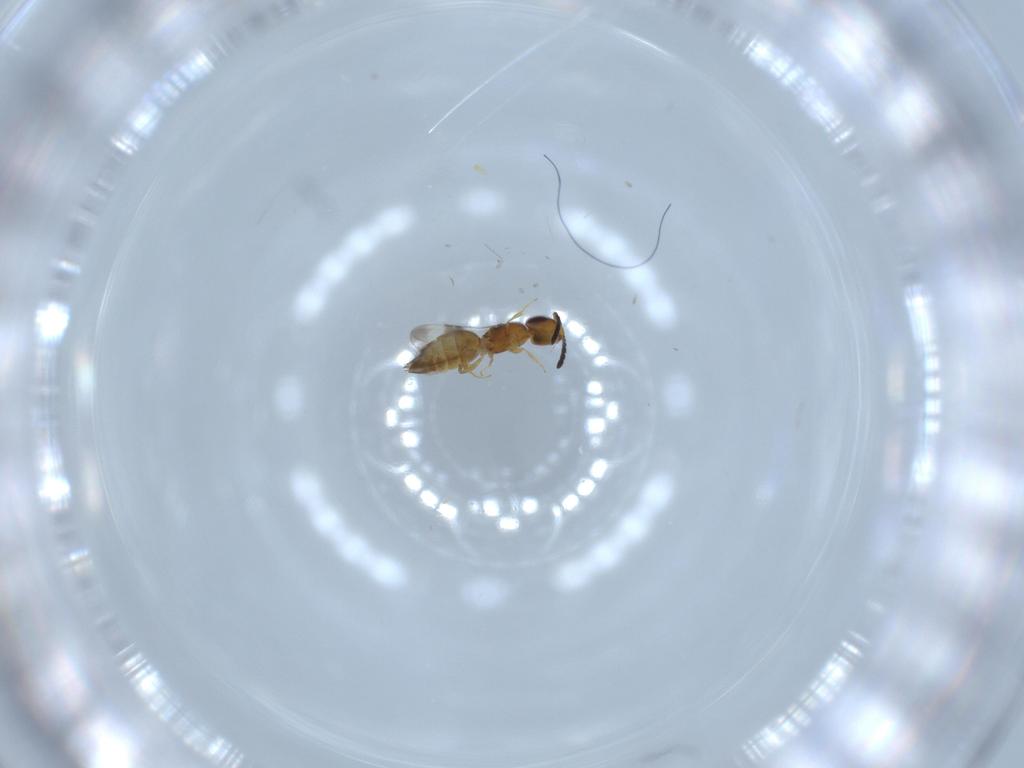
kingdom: Animalia
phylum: Arthropoda
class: Insecta
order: Hymenoptera
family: Ceraphronidae
